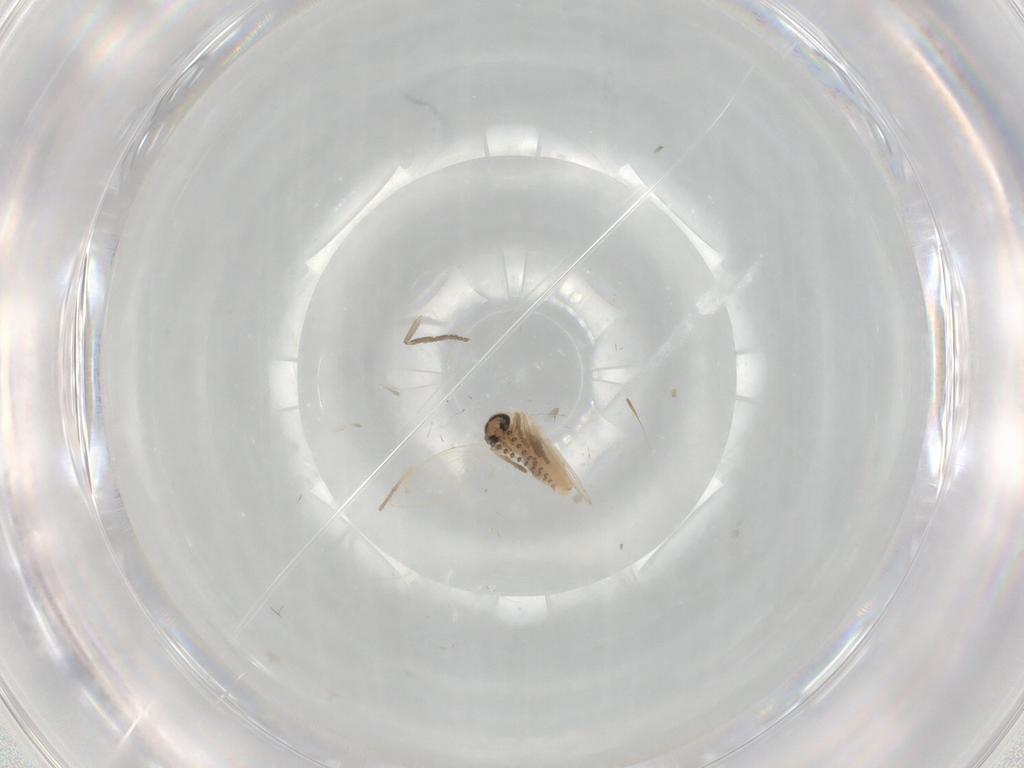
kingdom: Animalia
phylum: Arthropoda
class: Insecta
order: Diptera
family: Psychodidae
